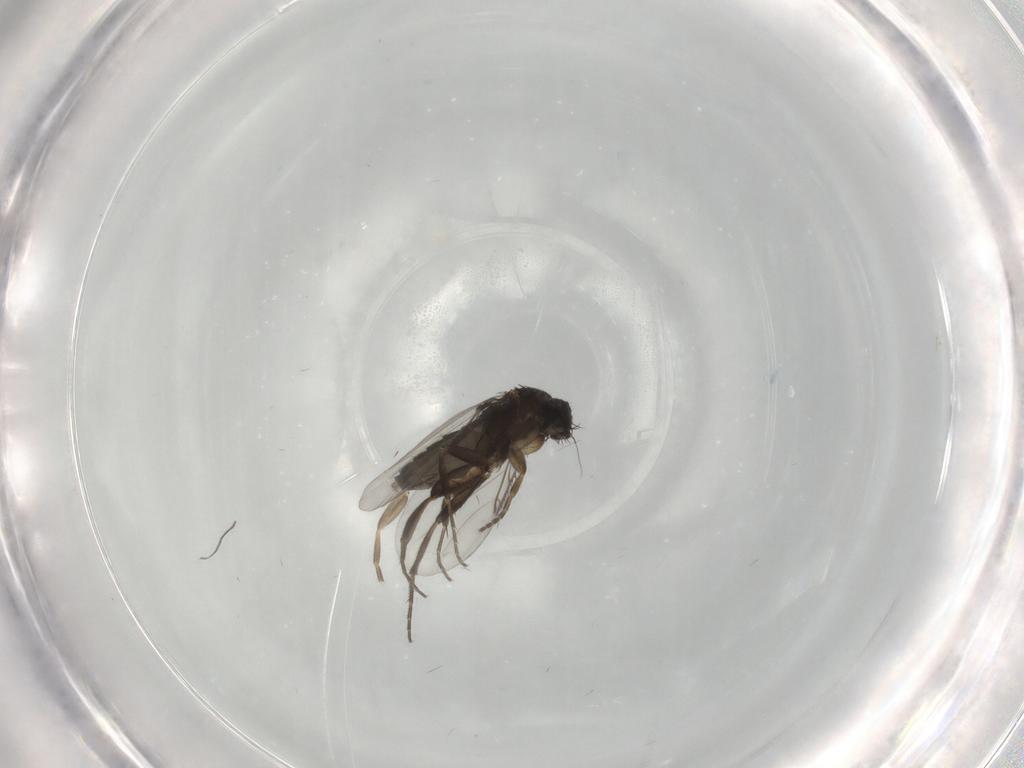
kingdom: Animalia
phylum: Arthropoda
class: Insecta
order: Diptera
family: Phoridae
